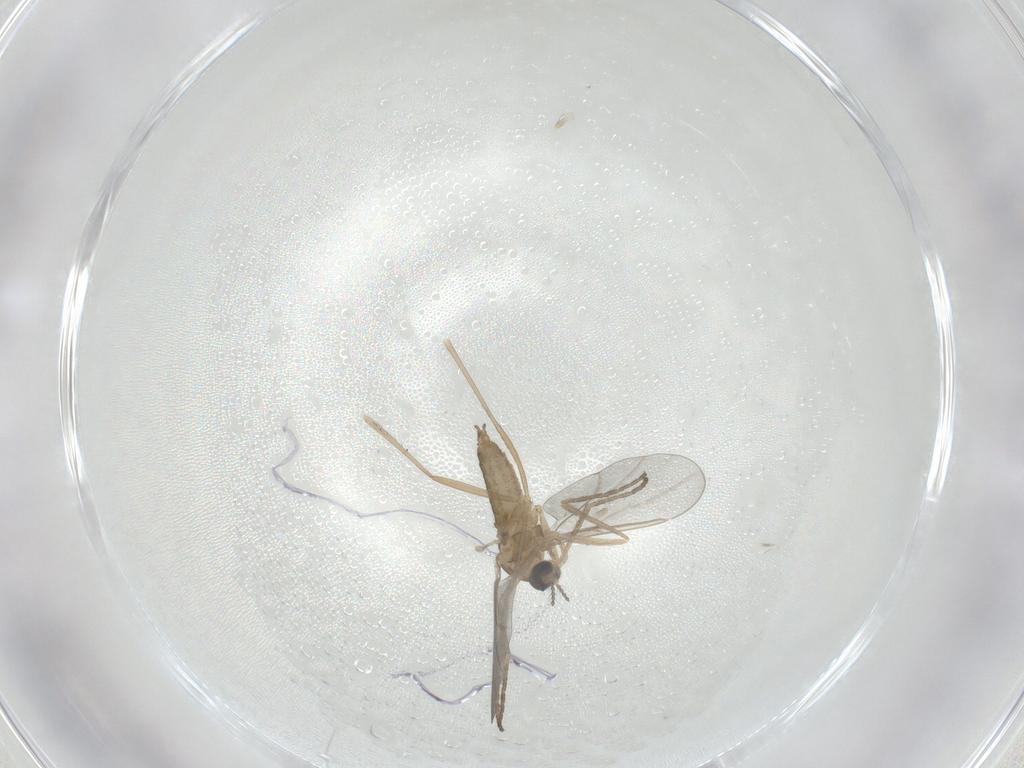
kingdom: Animalia
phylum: Arthropoda
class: Insecta
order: Diptera
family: Cecidomyiidae
